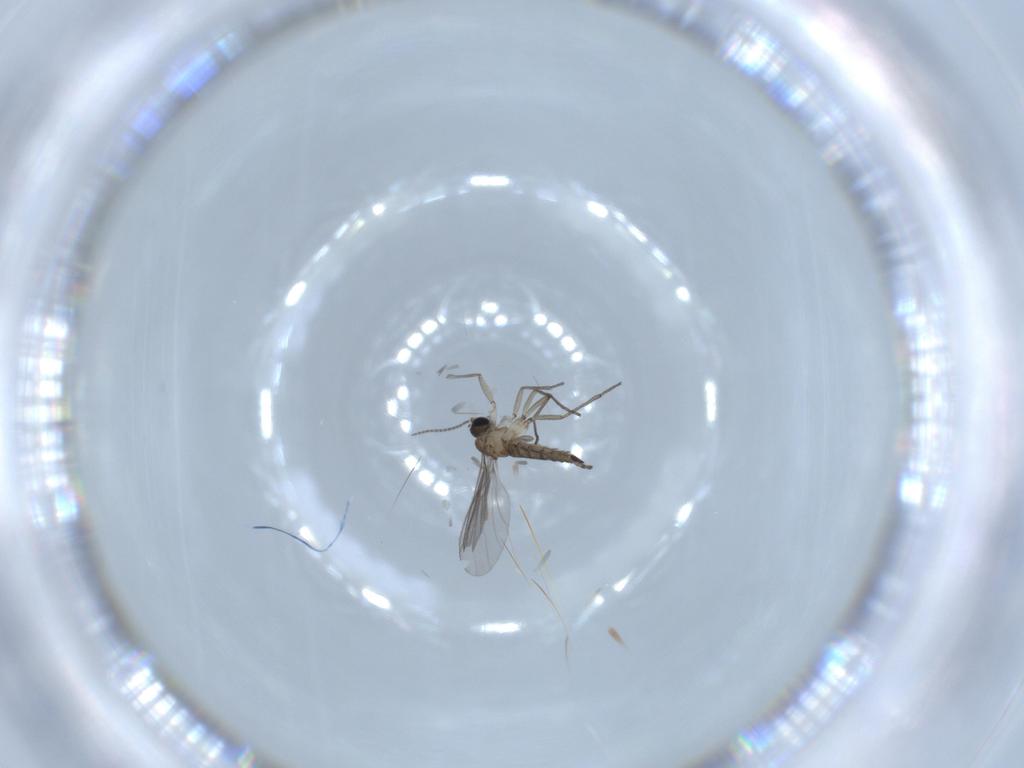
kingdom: Animalia
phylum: Arthropoda
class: Insecta
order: Diptera
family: Sciaridae
